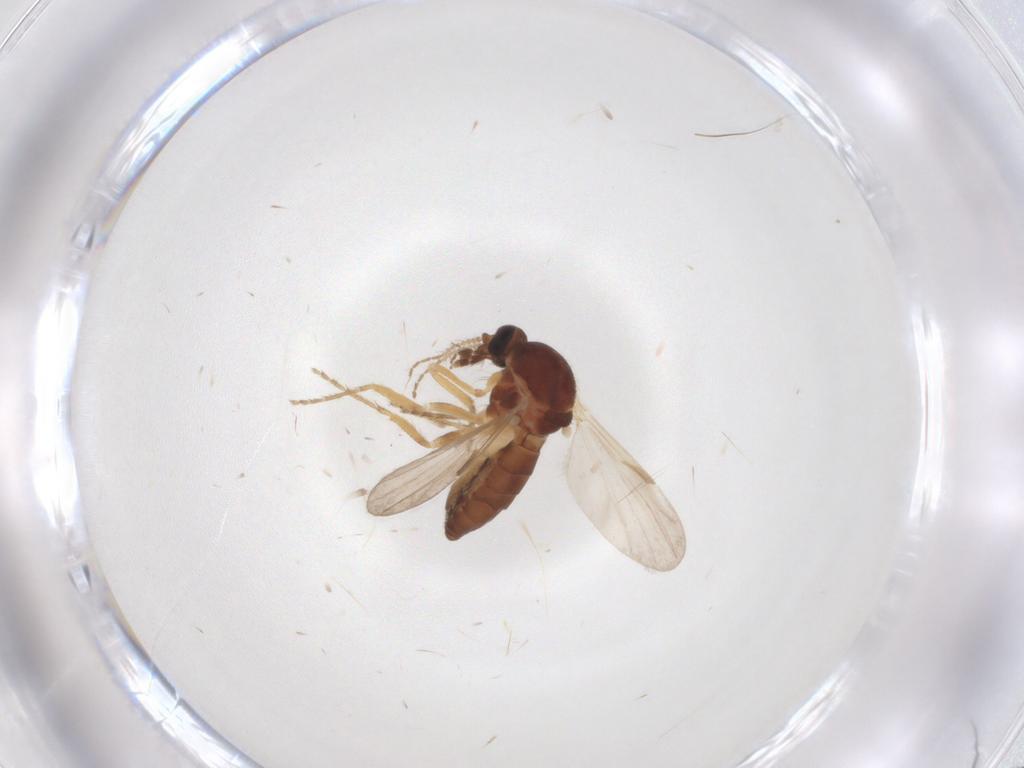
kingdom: Animalia
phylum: Arthropoda
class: Insecta
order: Diptera
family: Ceratopogonidae
